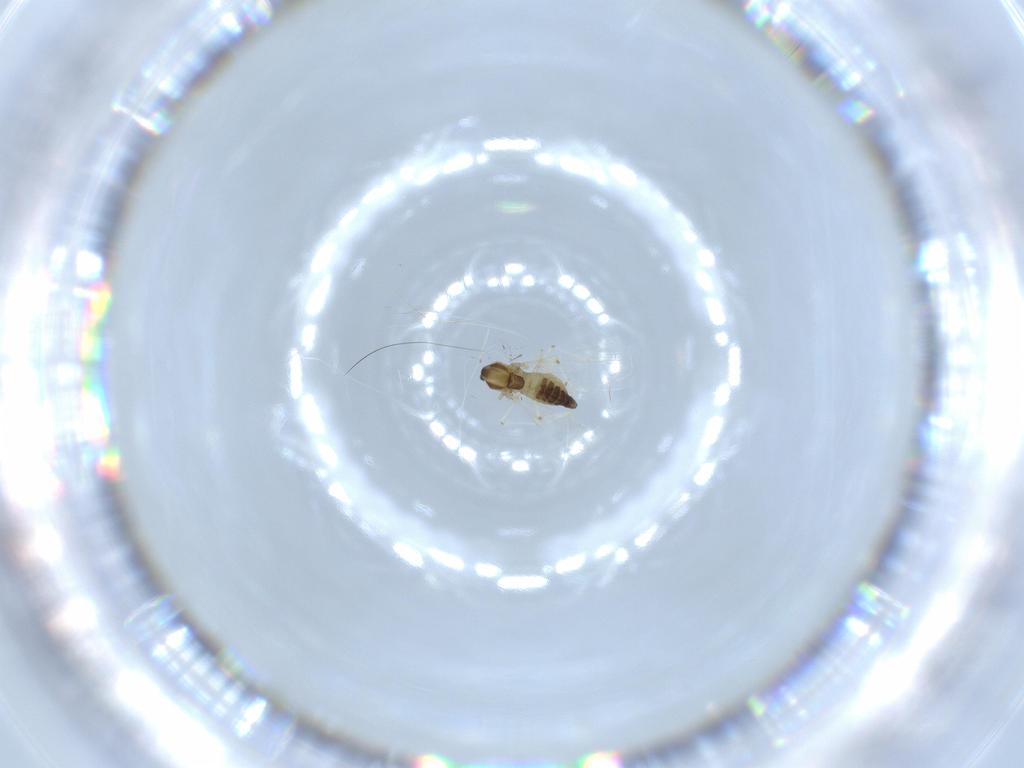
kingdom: Animalia
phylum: Arthropoda
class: Insecta
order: Diptera
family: Chironomidae
